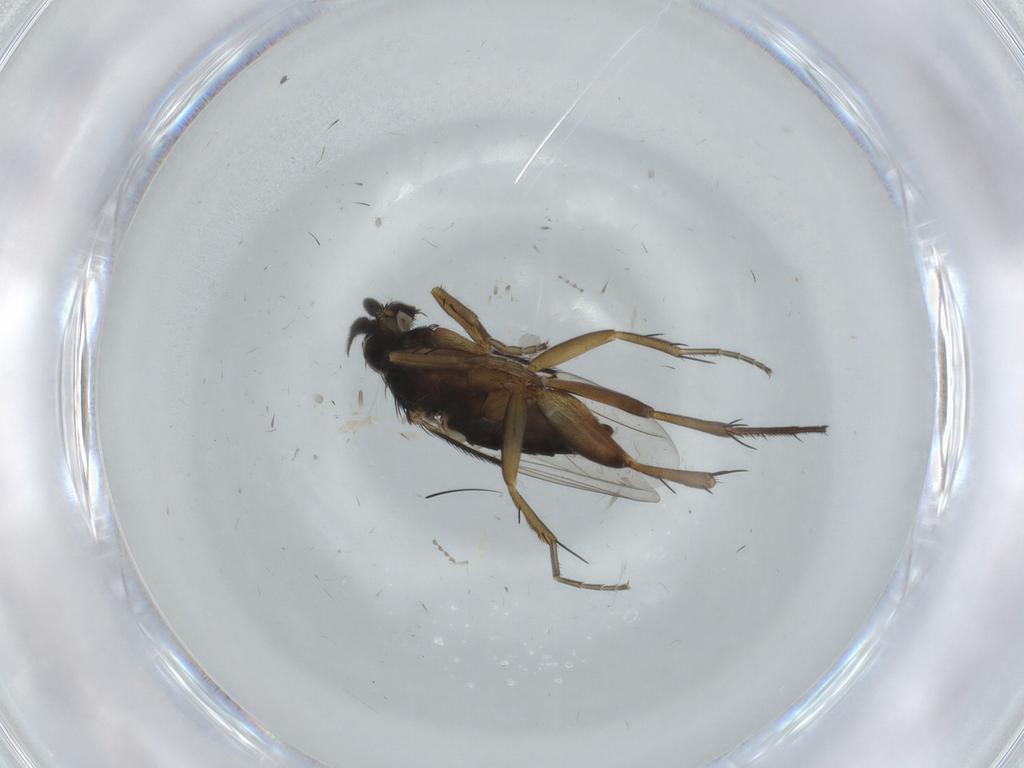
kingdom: Animalia
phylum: Arthropoda
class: Insecta
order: Diptera
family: Phoridae
